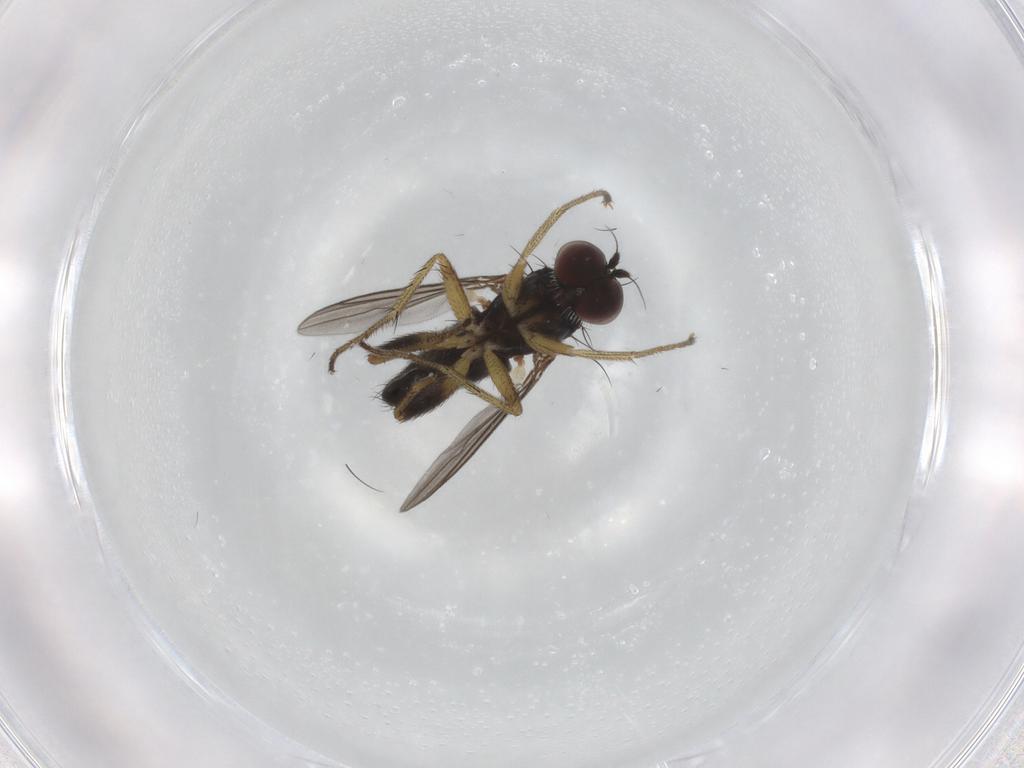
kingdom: Animalia
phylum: Arthropoda
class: Insecta
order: Diptera
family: Dolichopodidae
